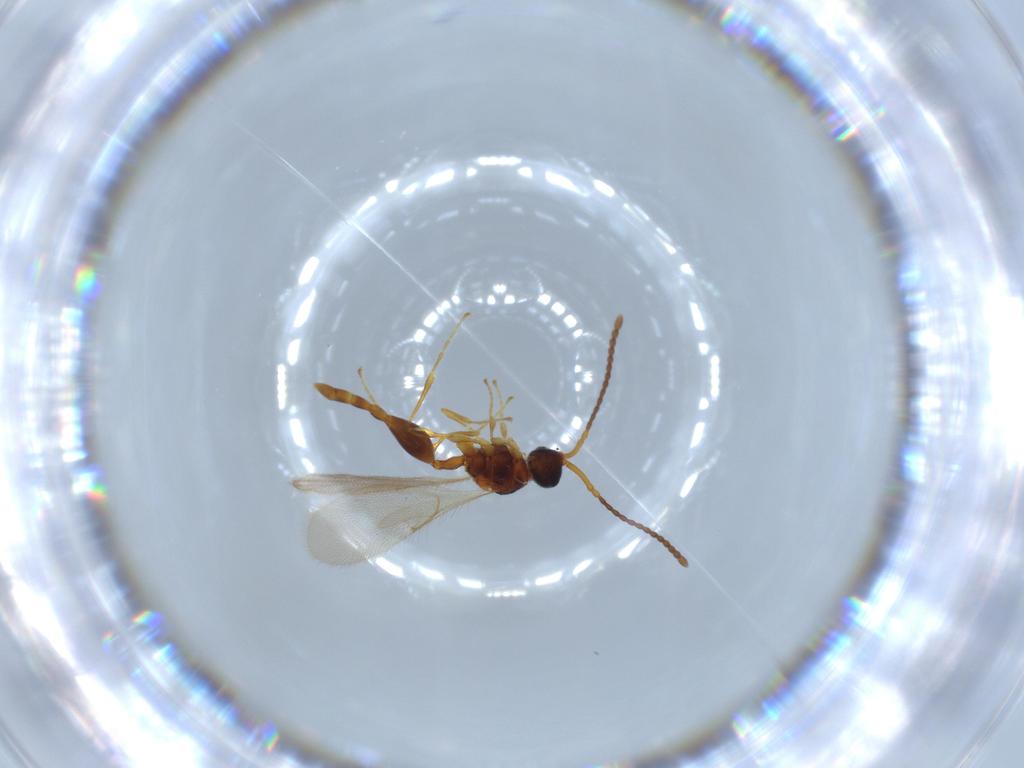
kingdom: Animalia
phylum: Arthropoda
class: Insecta
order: Hymenoptera
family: Diapriidae
